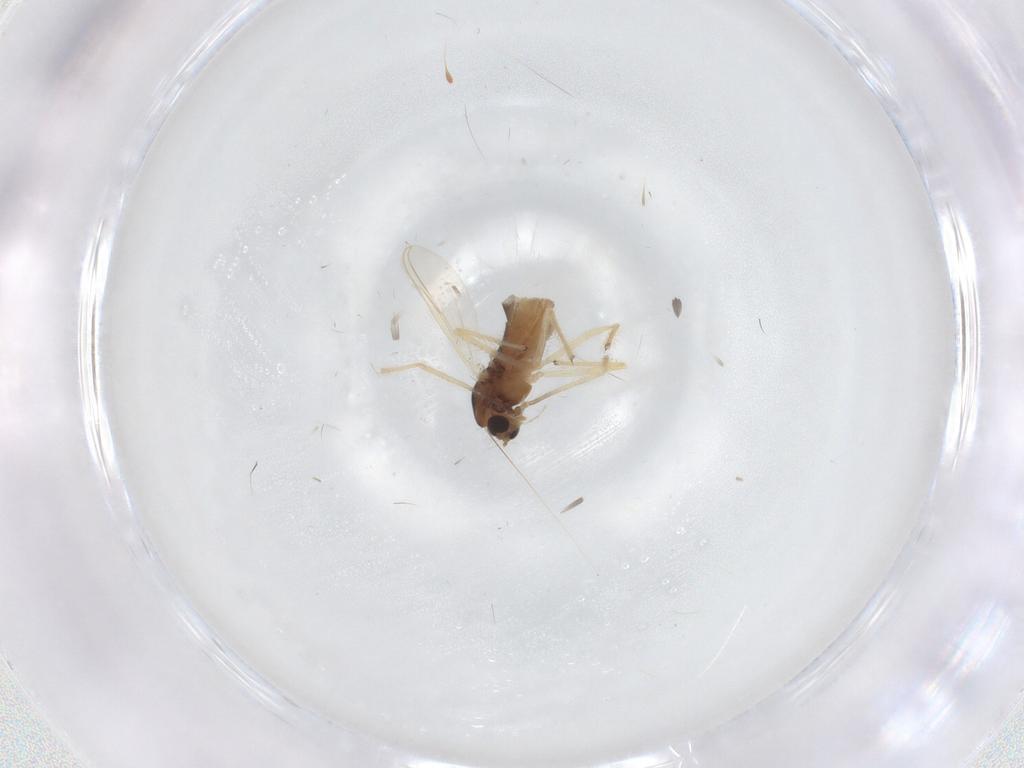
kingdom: Animalia
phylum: Arthropoda
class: Insecta
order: Diptera
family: Chironomidae
